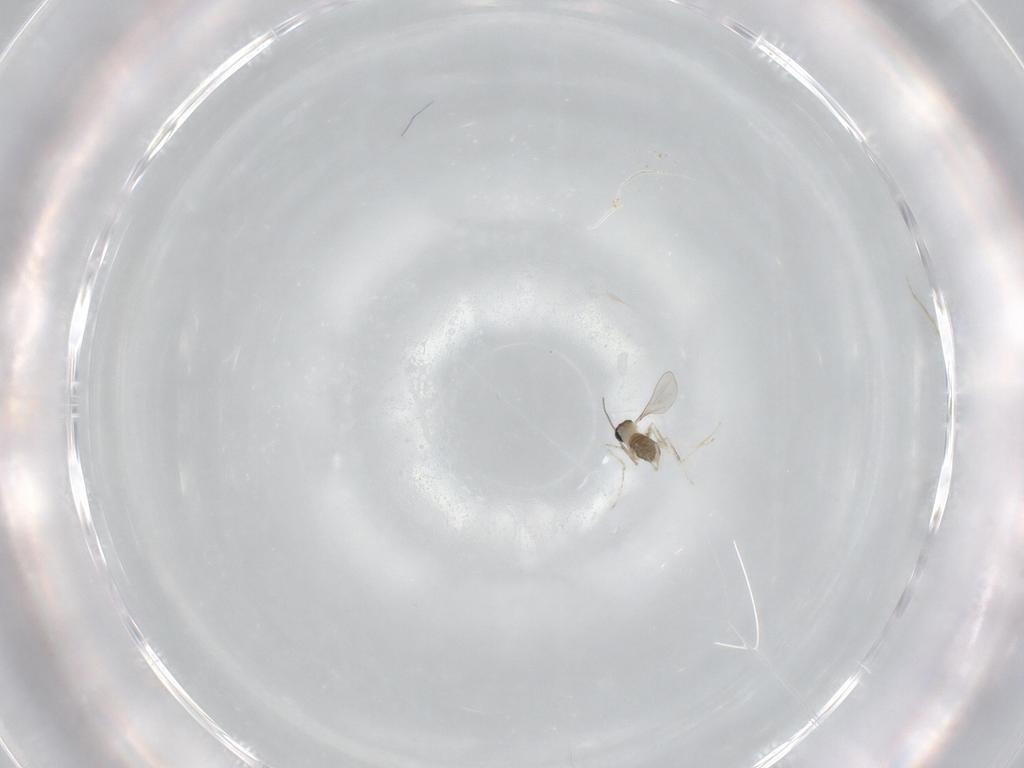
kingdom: Animalia
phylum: Arthropoda
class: Insecta
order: Diptera
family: Cecidomyiidae
